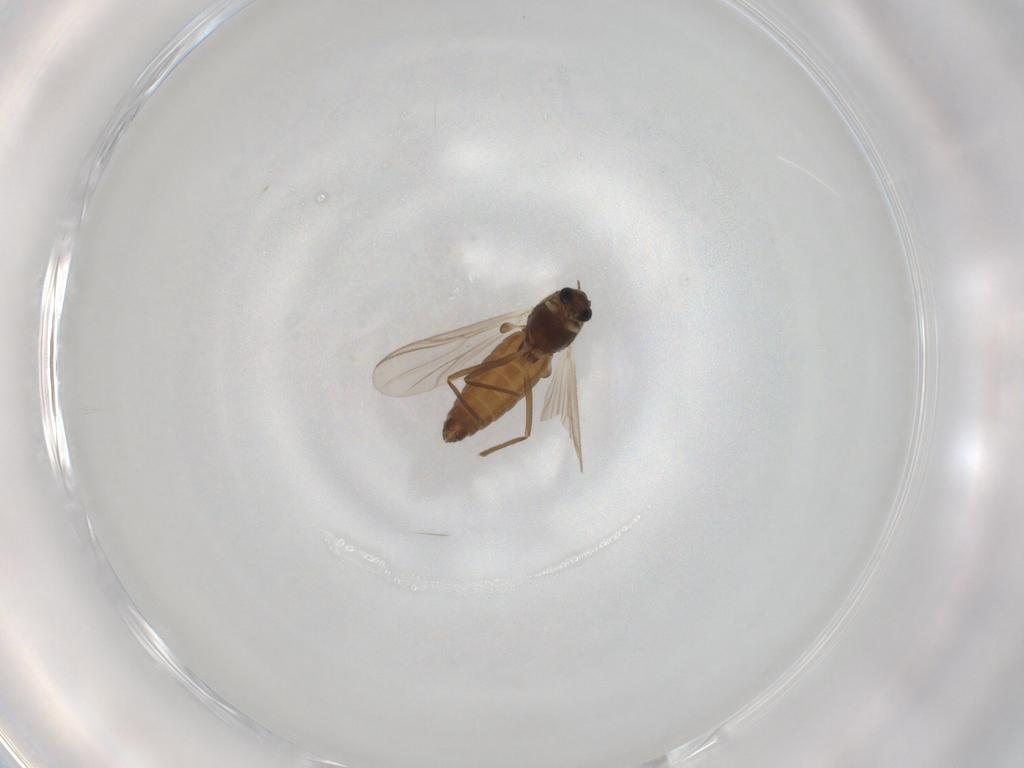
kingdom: Animalia
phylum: Arthropoda
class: Insecta
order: Diptera
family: Chironomidae
